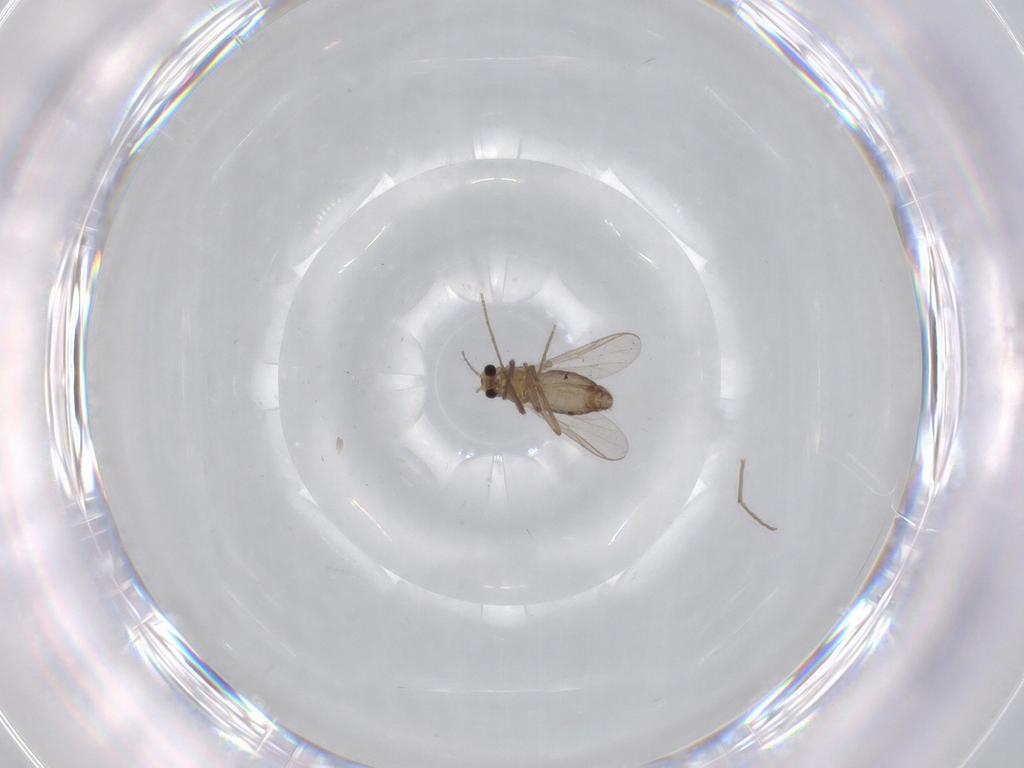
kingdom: Animalia
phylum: Arthropoda
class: Insecta
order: Diptera
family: Chironomidae
